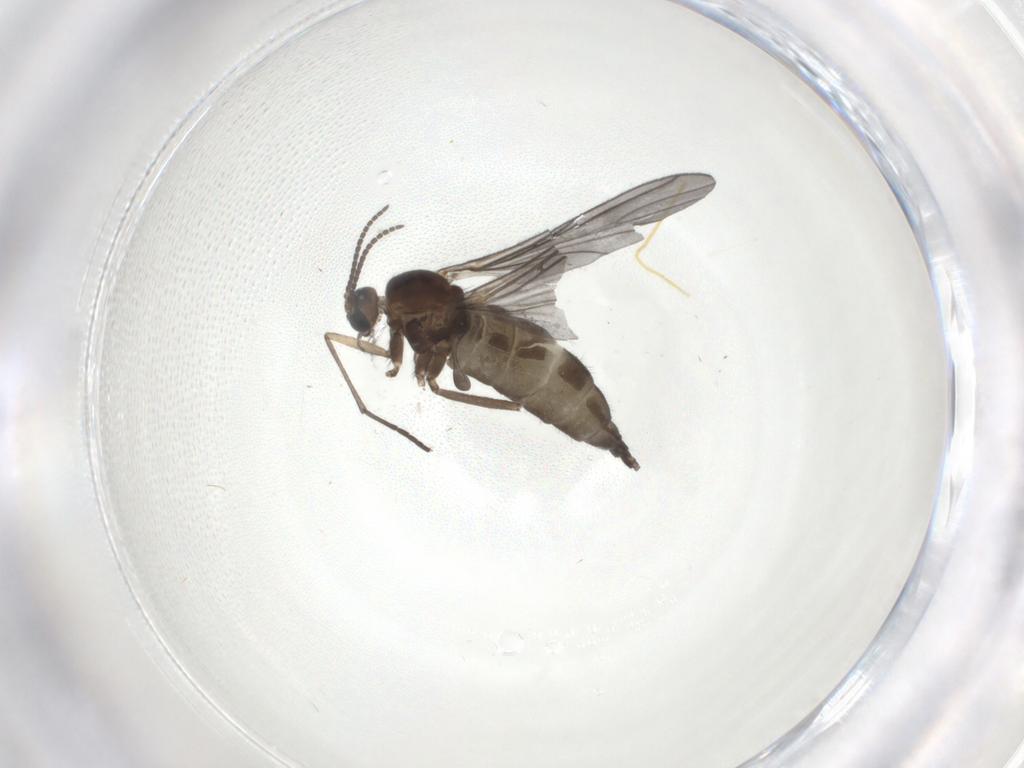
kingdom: Animalia
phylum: Arthropoda
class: Insecta
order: Diptera
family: Sciaridae
